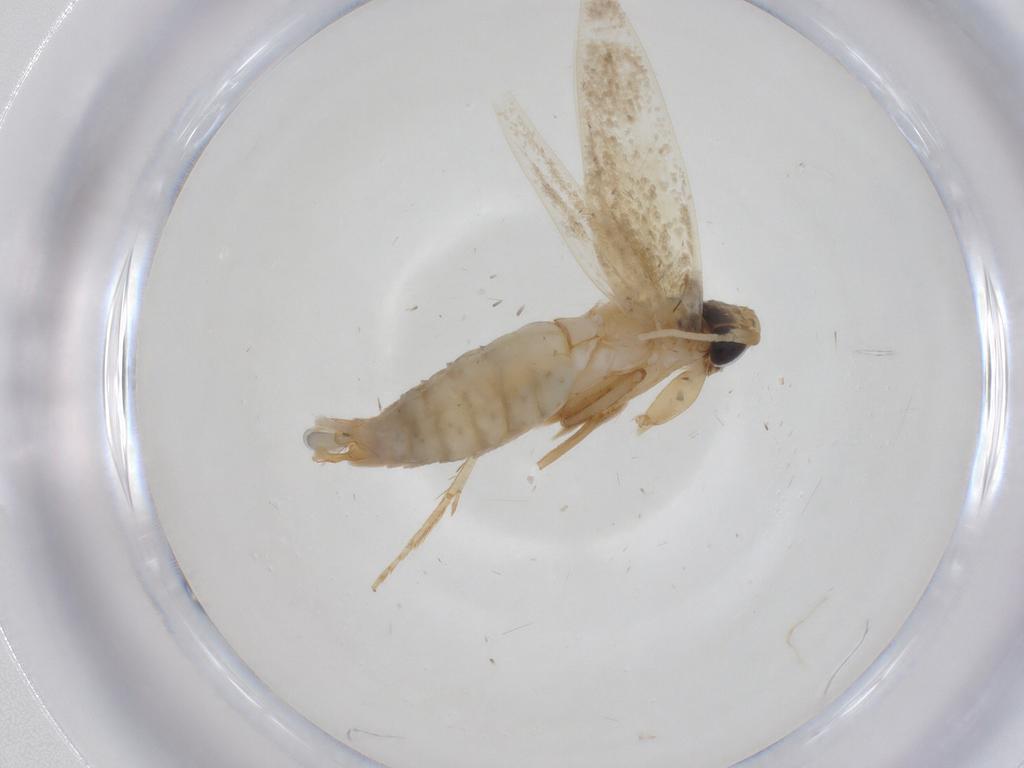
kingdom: Animalia
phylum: Arthropoda
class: Insecta
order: Lepidoptera
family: Tineidae
